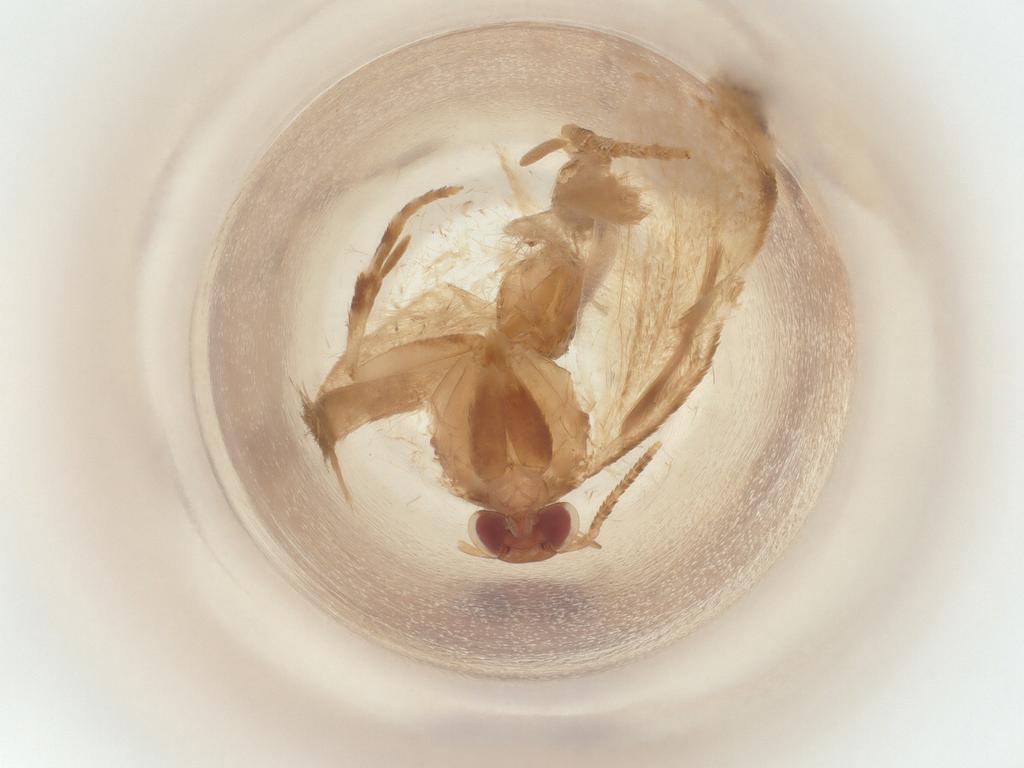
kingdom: Animalia
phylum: Arthropoda
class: Insecta
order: Lepidoptera
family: Gelechiidae
